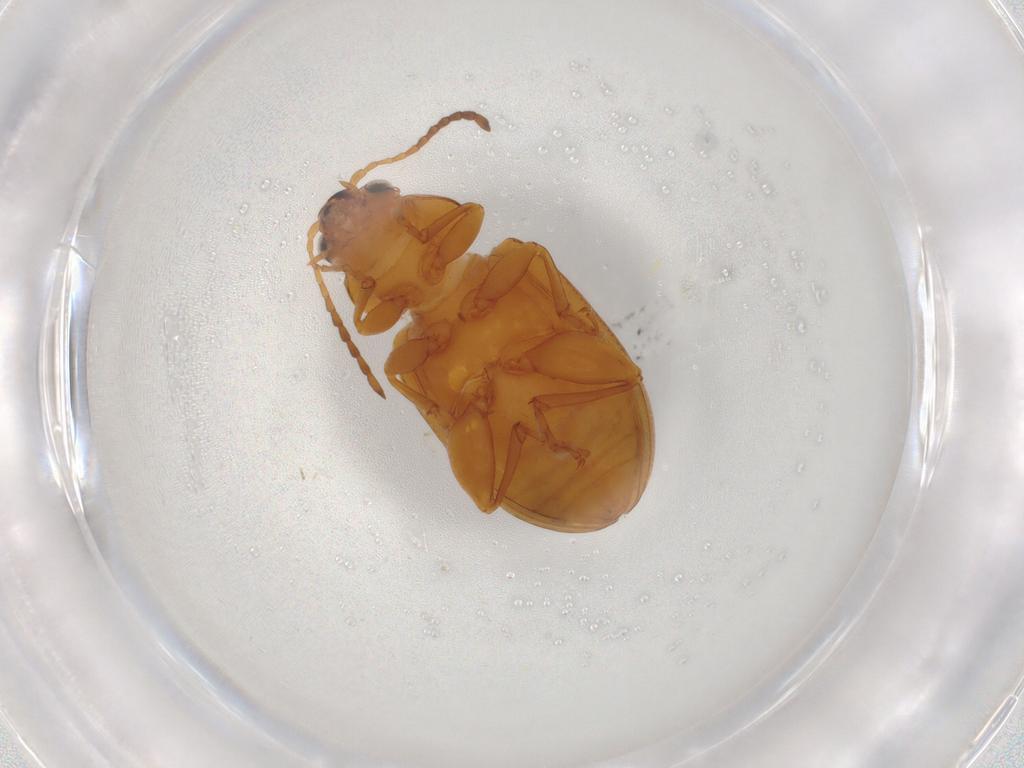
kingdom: Animalia
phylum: Arthropoda
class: Insecta
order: Coleoptera
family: Chrysomelidae
